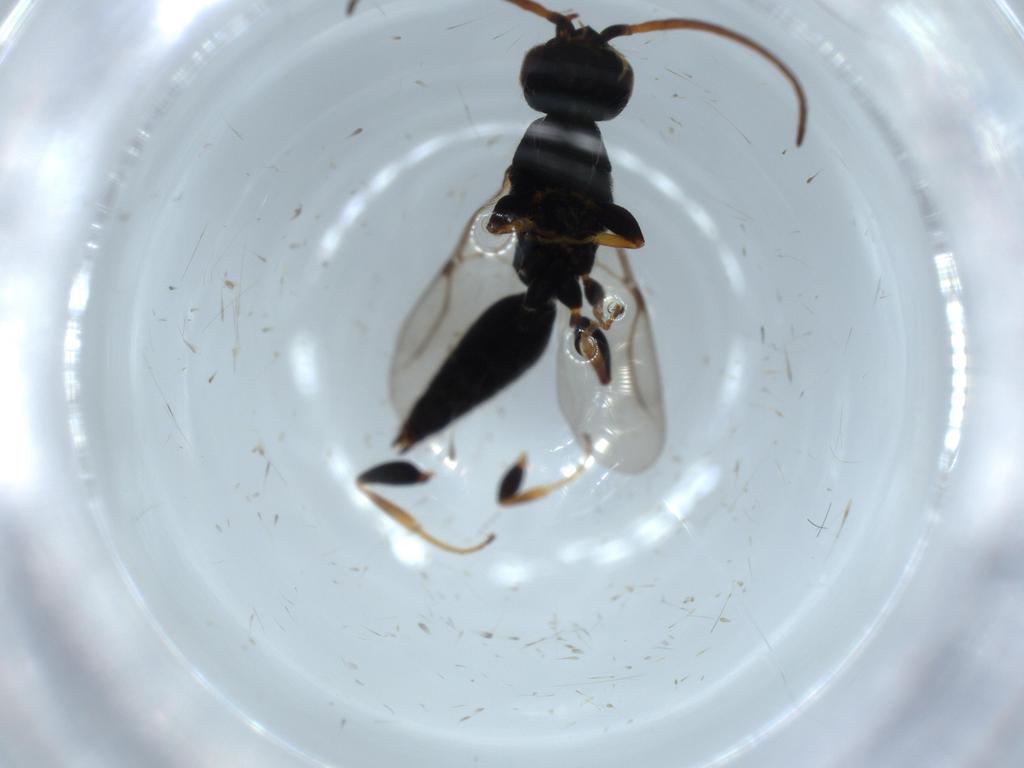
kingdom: Animalia
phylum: Arthropoda
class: Insecta
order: Hymenoptera
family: Bethylidae
